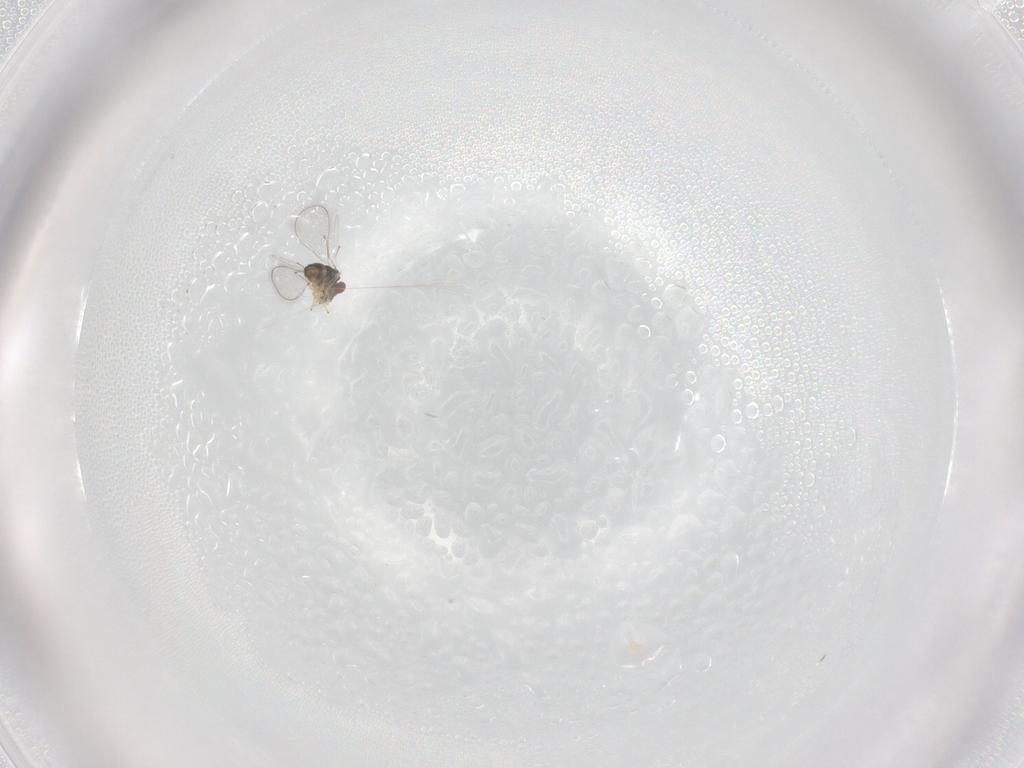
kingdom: Animalia
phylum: Arthropoda
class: Insecta
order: Hymenoptera
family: Eulophidae
